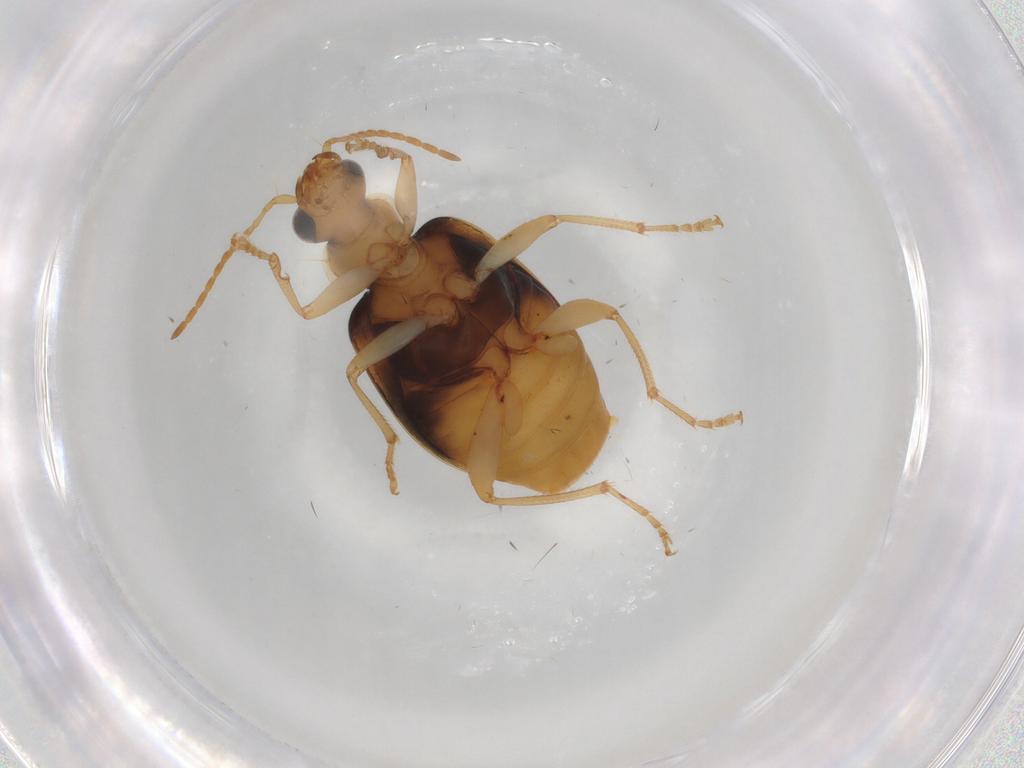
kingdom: Animalia
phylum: Arthropoda
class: Insecta
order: Coleoptera
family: Carabidae
